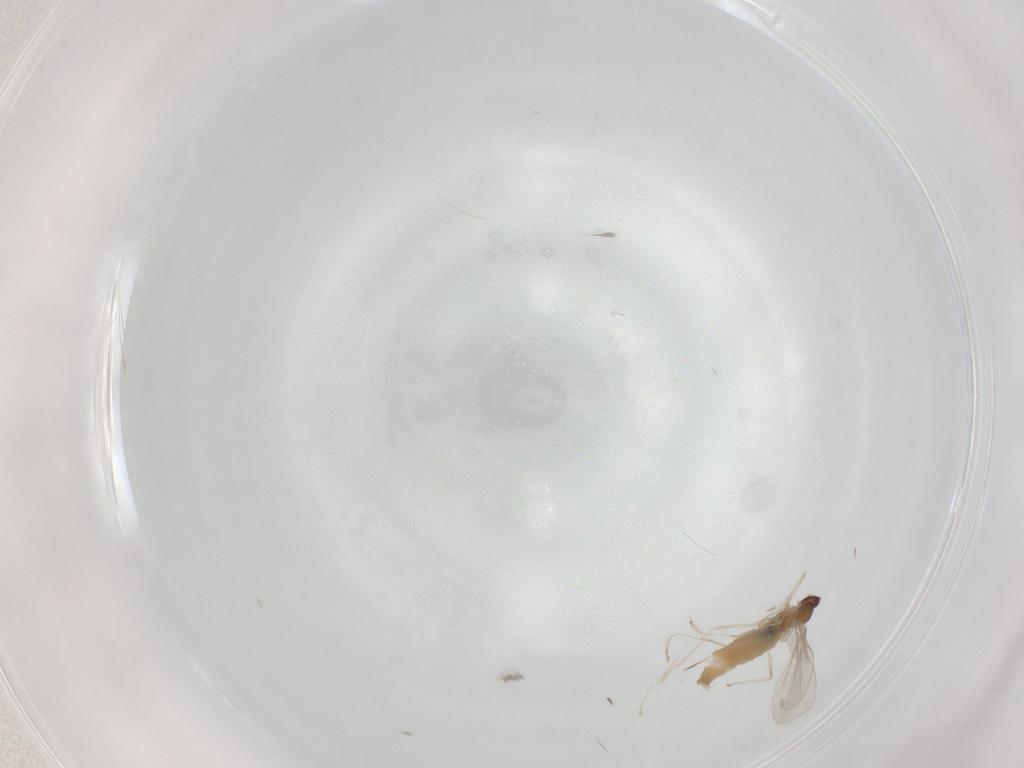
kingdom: Animalia
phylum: Arthropoda
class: Insecta
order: Diptera
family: Cecidomyiidae
